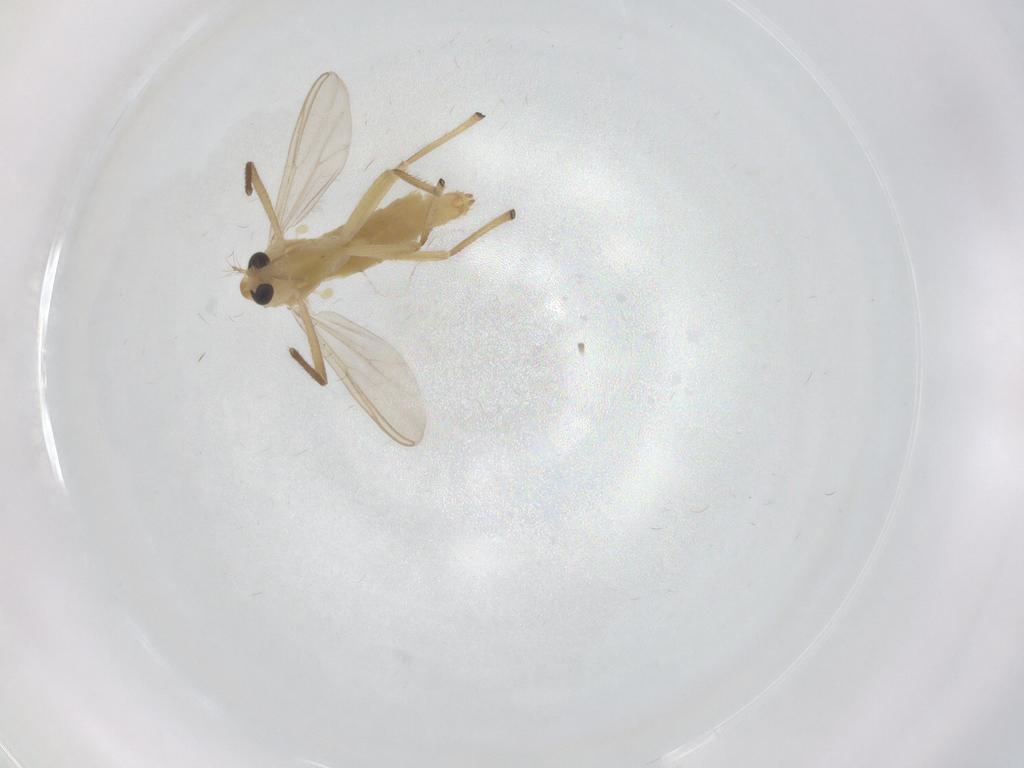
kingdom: Animalia
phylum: Arthropoda
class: Insecta
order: Diptera
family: Chironomidae
